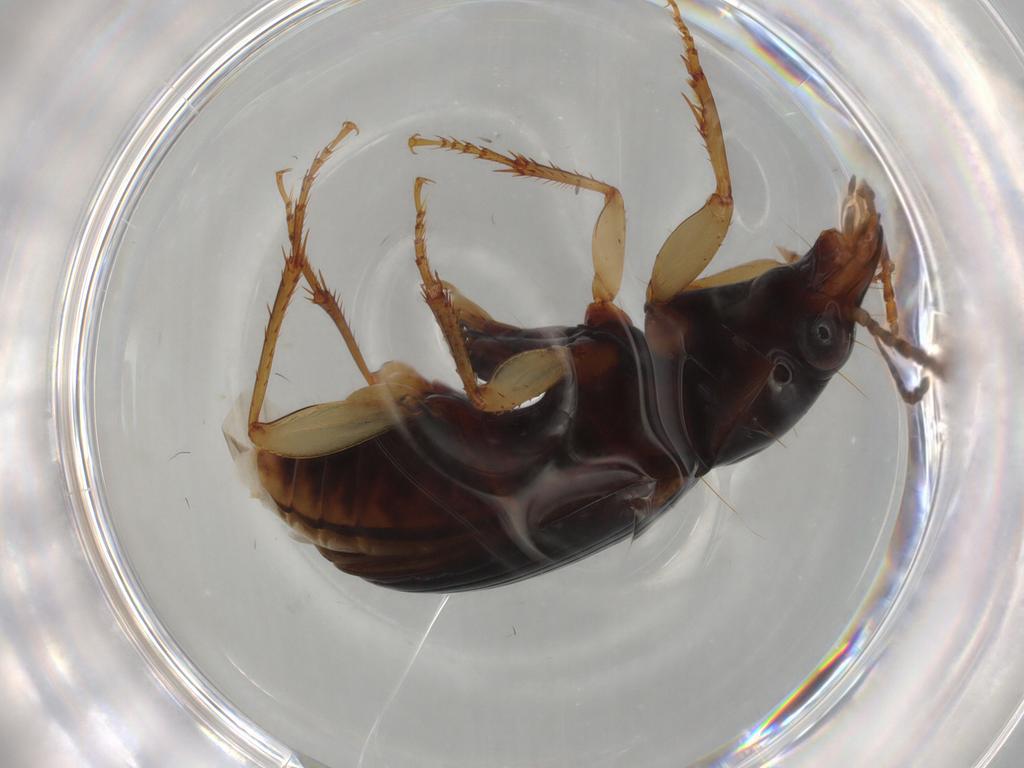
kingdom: Animalia
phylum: Arthropoda
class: Insecta
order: Coleoptera
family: Carabidae
